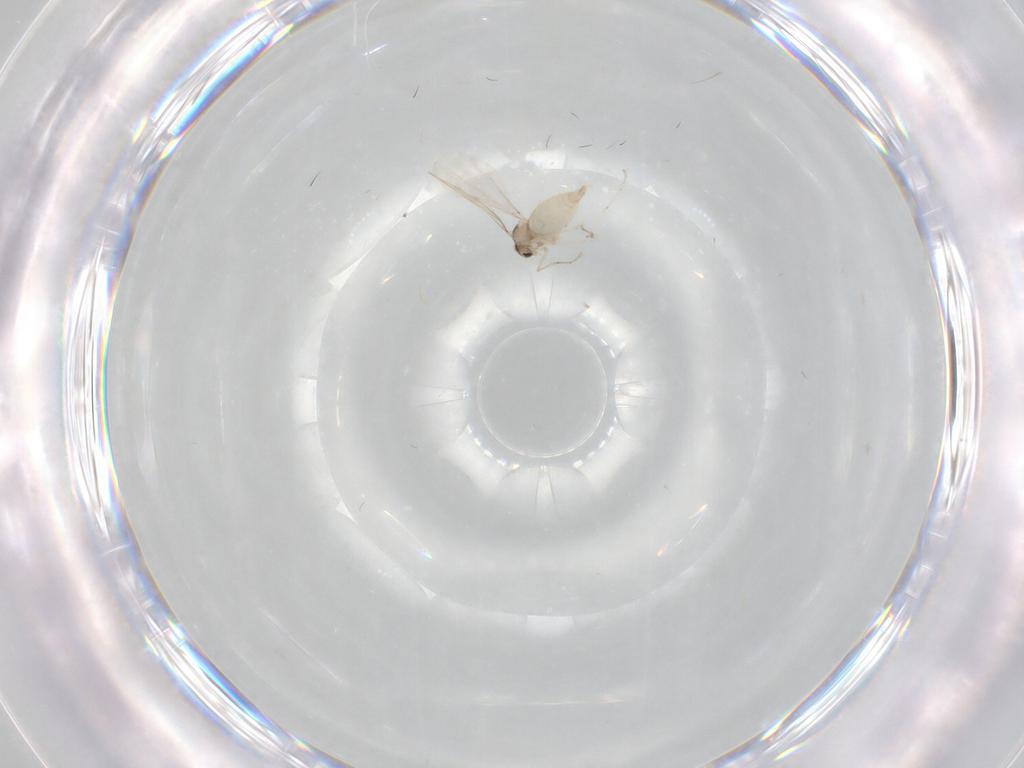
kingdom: Animalia
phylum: Arthropoda
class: Insecta
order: Diptera
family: Cecidomyiidae
